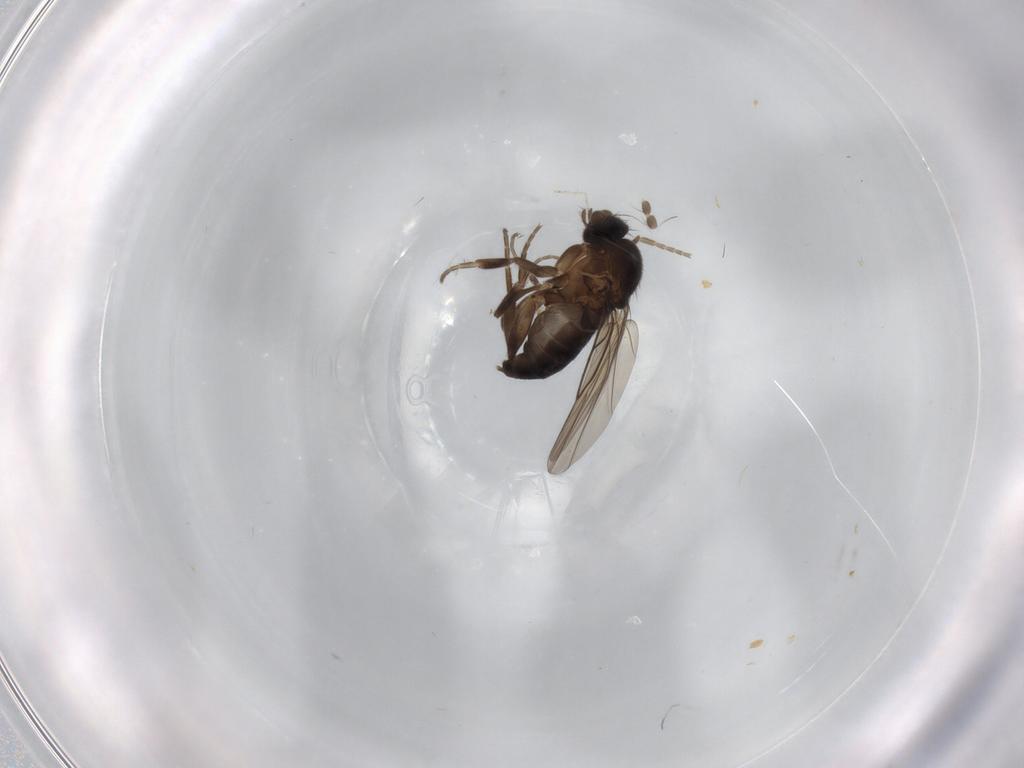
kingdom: Animalia
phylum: Arthropoda
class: Insecta
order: Diptera
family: Phoridae
